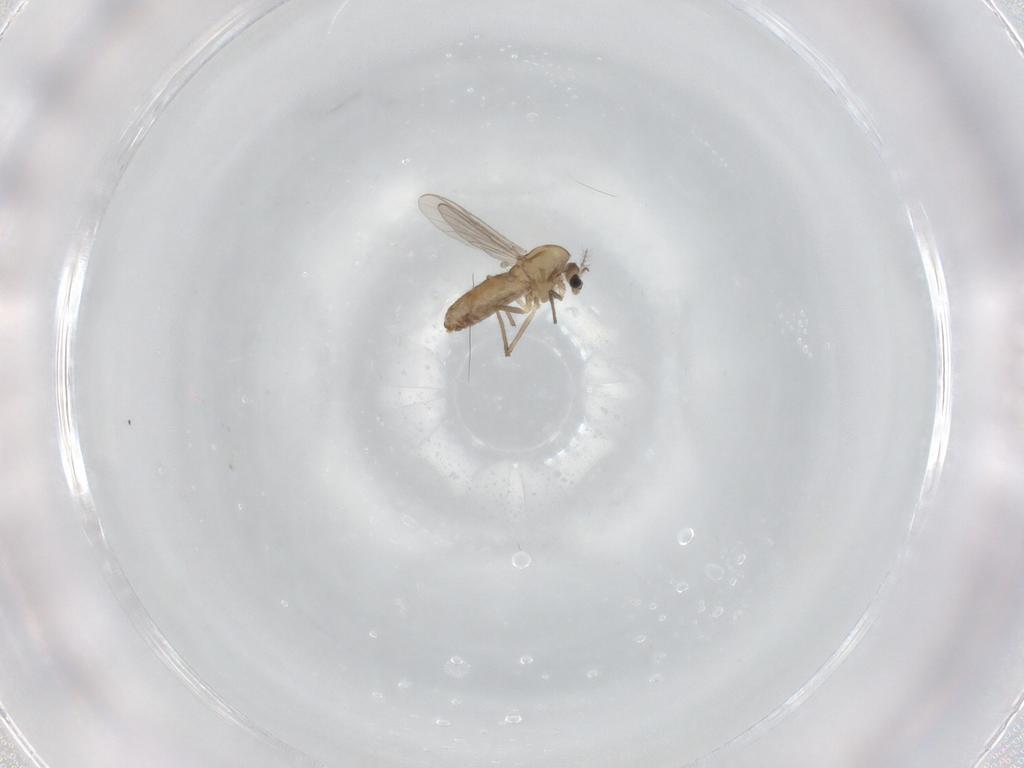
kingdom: Animalia
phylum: Arthropoda
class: Insecta
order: Diptera
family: Chironomidae
